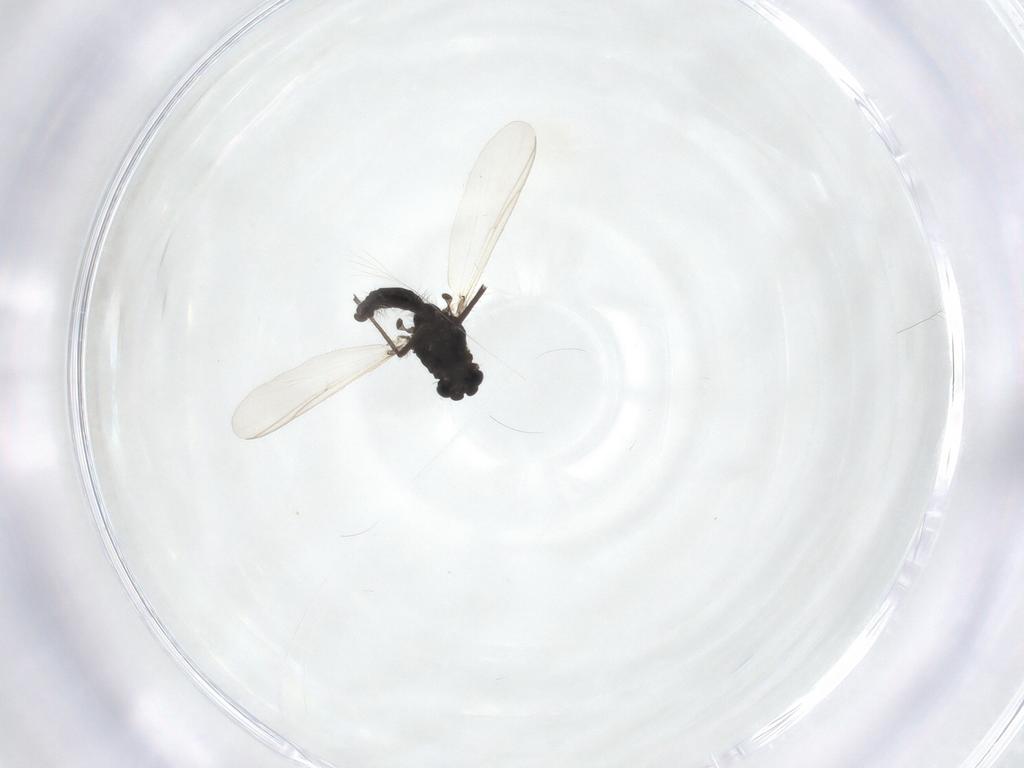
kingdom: Animalia
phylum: Arthropoda
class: Insecta
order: Diptera
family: Chironomidae
